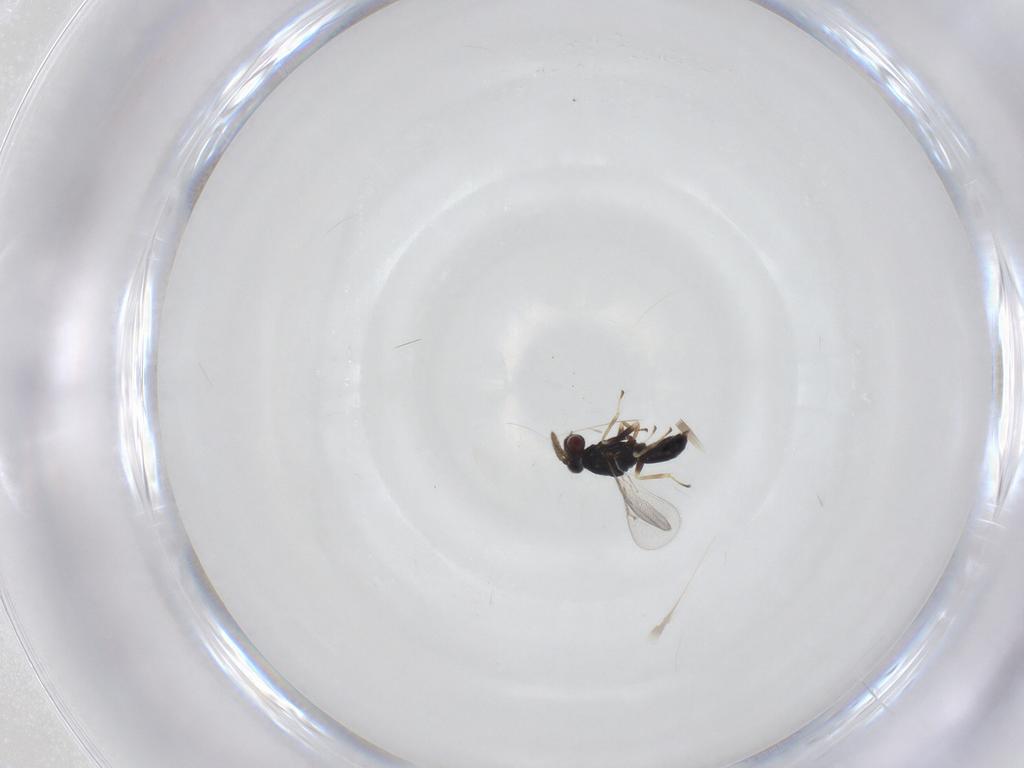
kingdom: Animalia
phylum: Arthropoda
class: Insecta
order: Hymenoptera
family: Eulophidae
